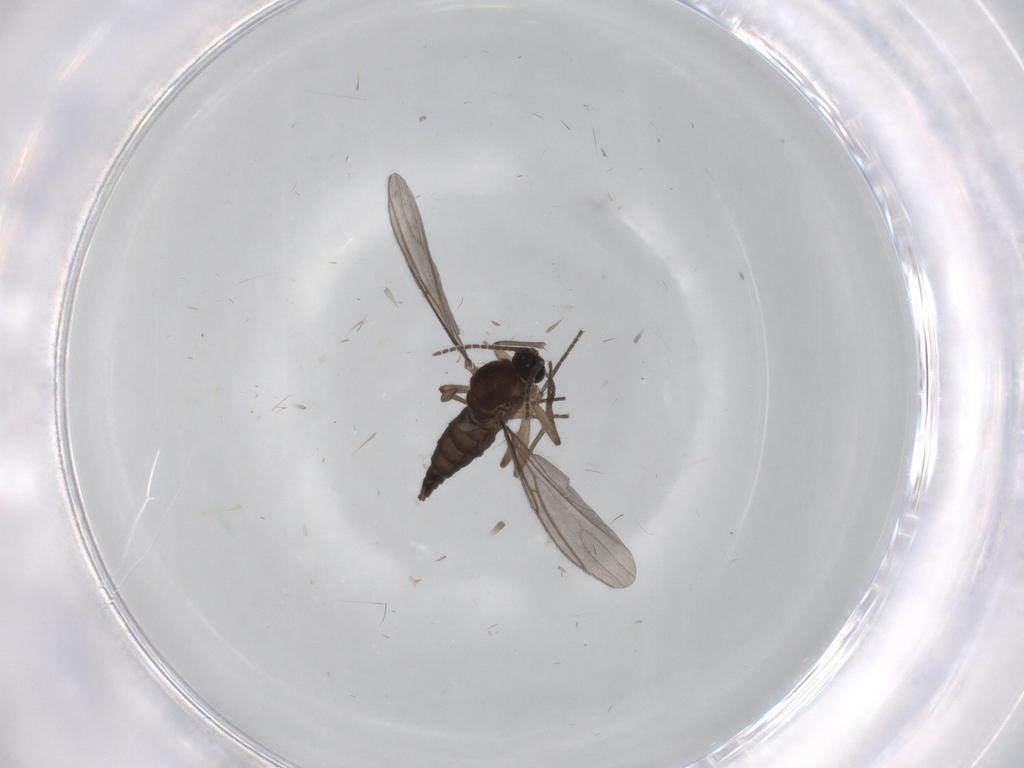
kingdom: Animalia
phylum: Arthropoda
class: Insecta
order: Diptera
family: Sciaridae
